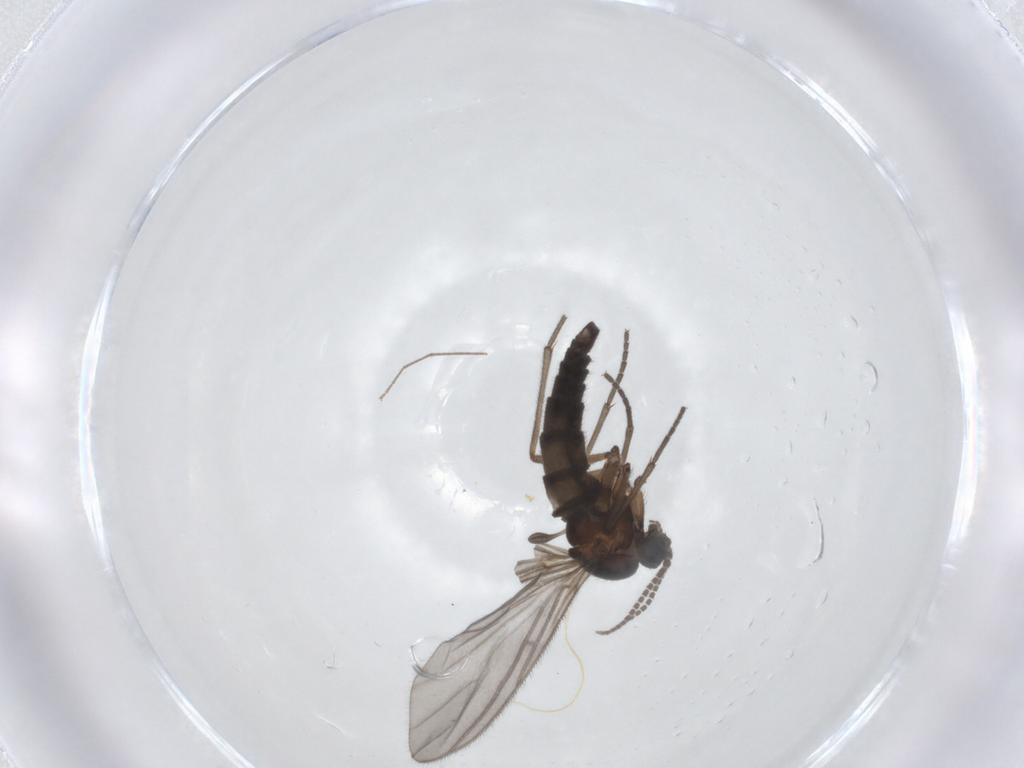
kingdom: Animalia
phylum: Arthropoda
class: Insecta
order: Diptera
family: Sciaridae
